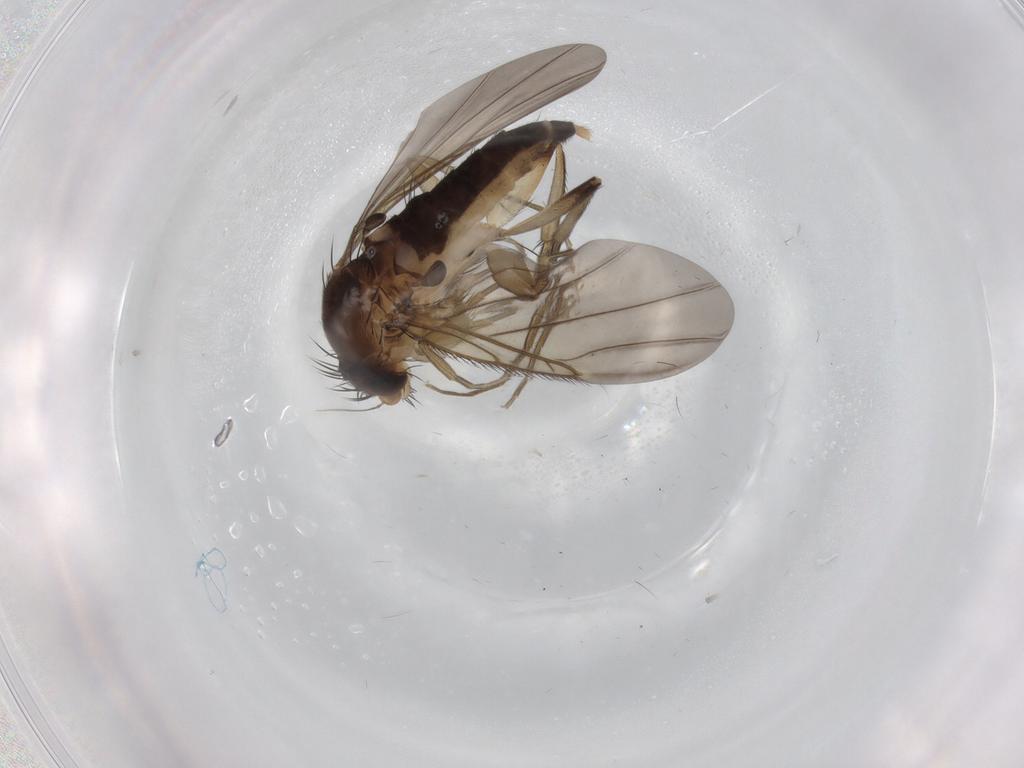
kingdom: Animalia
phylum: Arthropoda
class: Insecta
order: Diptera
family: Phoridae
